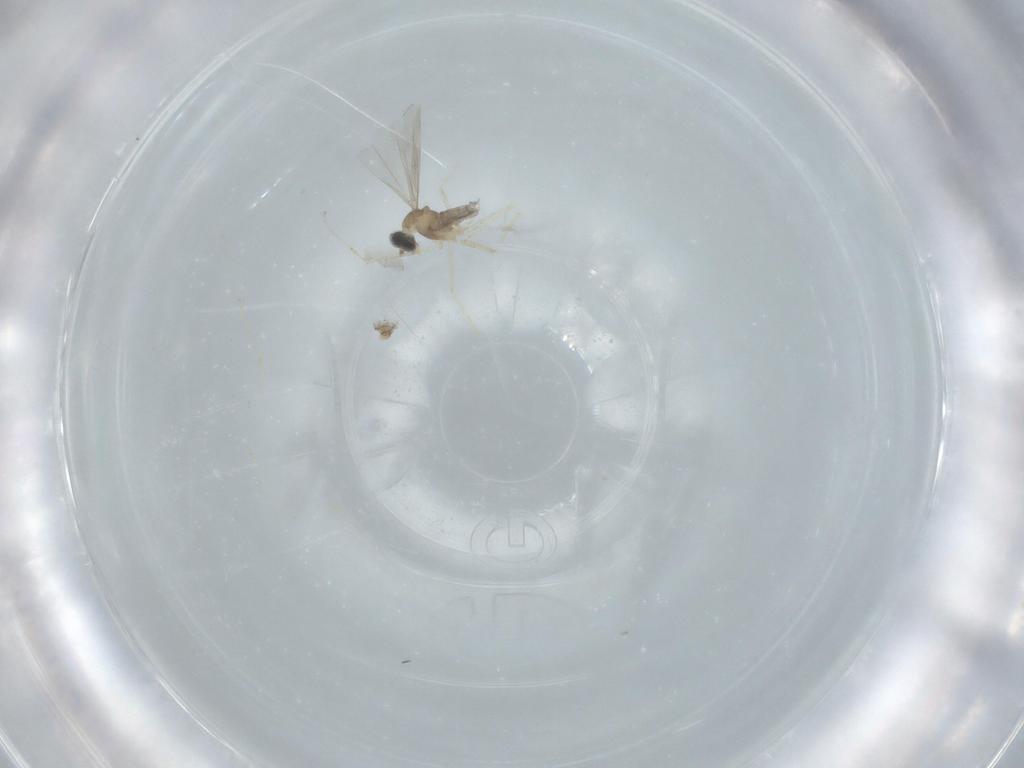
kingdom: Animalia
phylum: Arthropoda
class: Insecta
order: Diptera
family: Cecidomyiidae
